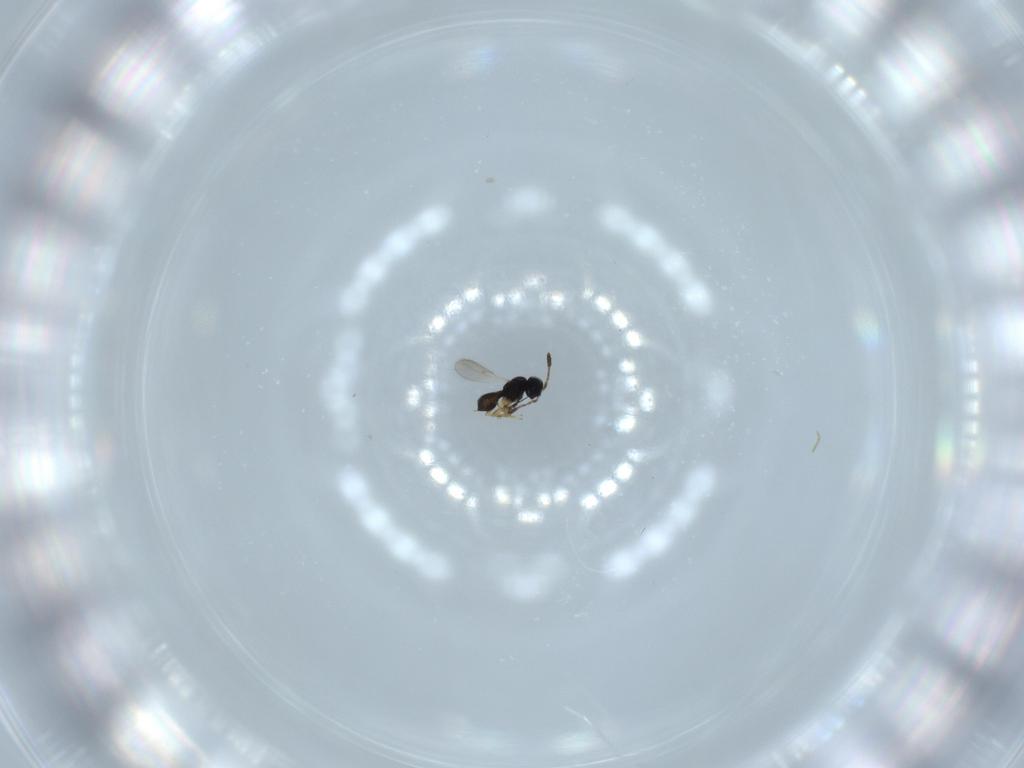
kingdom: Animalia
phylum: Arthropoda
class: Insecta
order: Hymenoptera
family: Scelionidae
